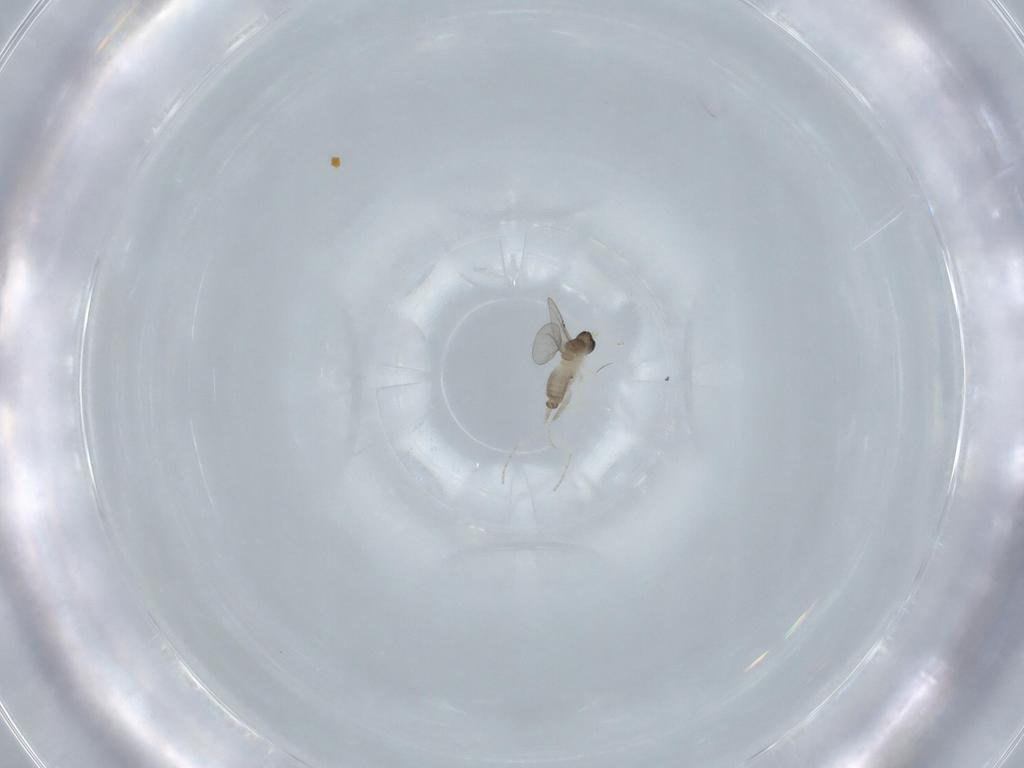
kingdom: Animalia
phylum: Arthropoda
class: Insecta
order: Diptera
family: Cecidomyiidae
